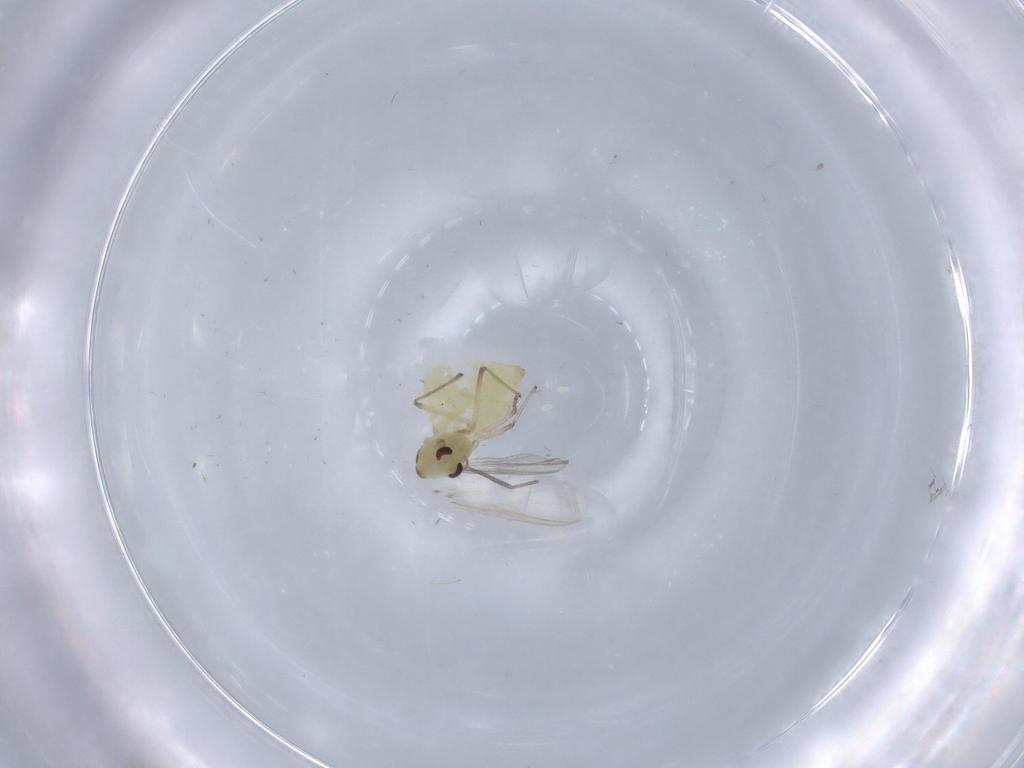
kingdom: Animalia
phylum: Arthropoda
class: Insecta
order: Diptera
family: Chironomidae
